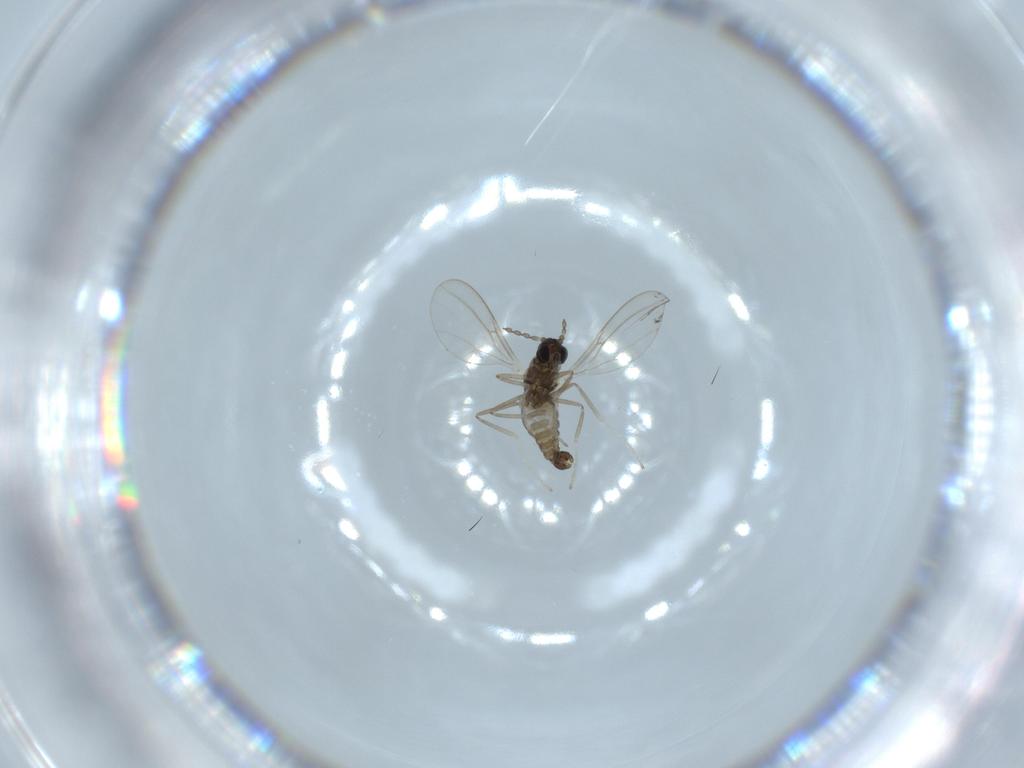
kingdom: Animalia
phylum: Arthropoda
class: Insecta
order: Diptera
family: Cecidomyiidae
